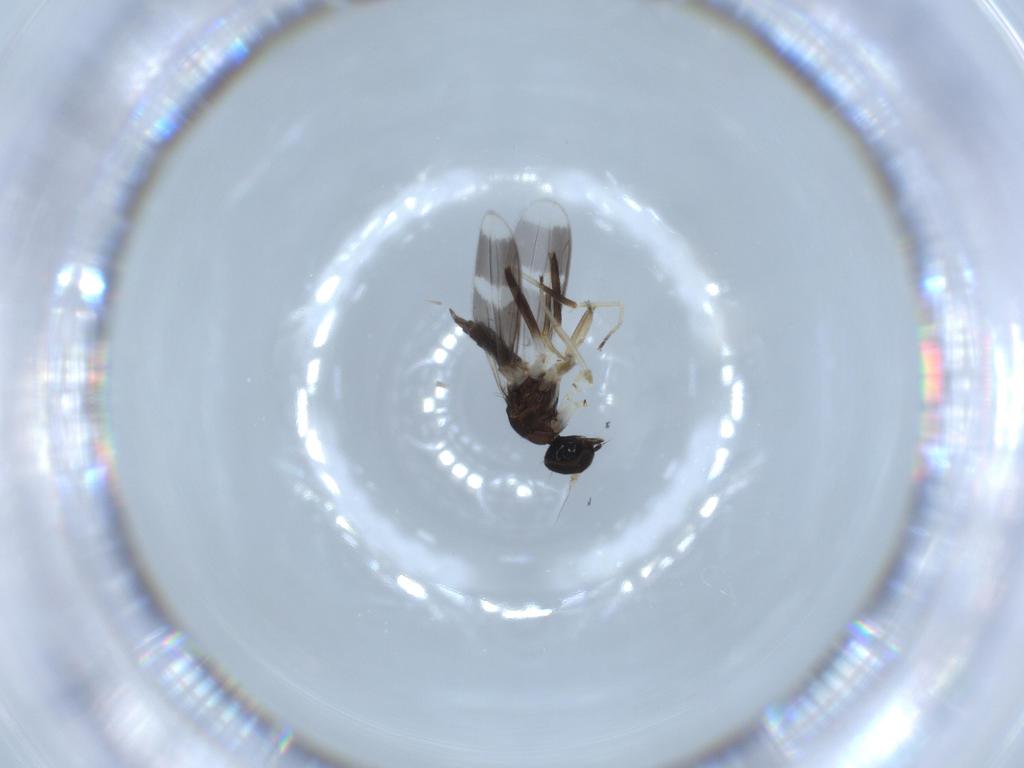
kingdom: Animalia
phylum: Arthropoda
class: Insecta
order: Diptera
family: Hybotidae
